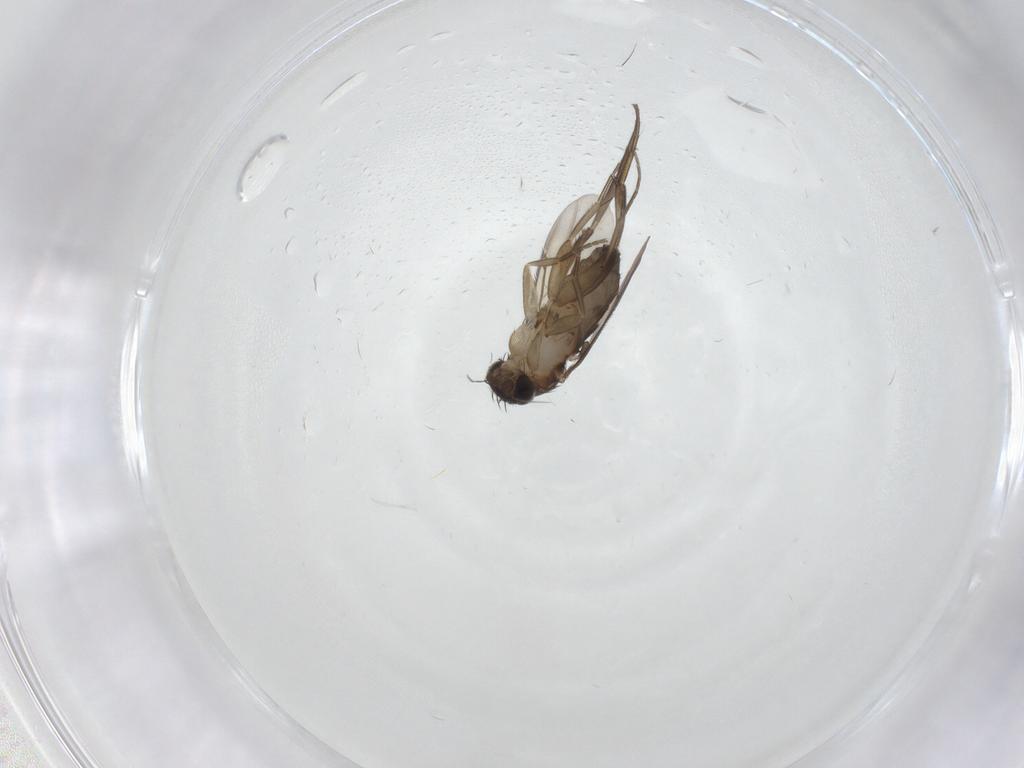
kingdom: Animalia
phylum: Arthropoda
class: Insecta
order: Diptera
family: Phoridae
